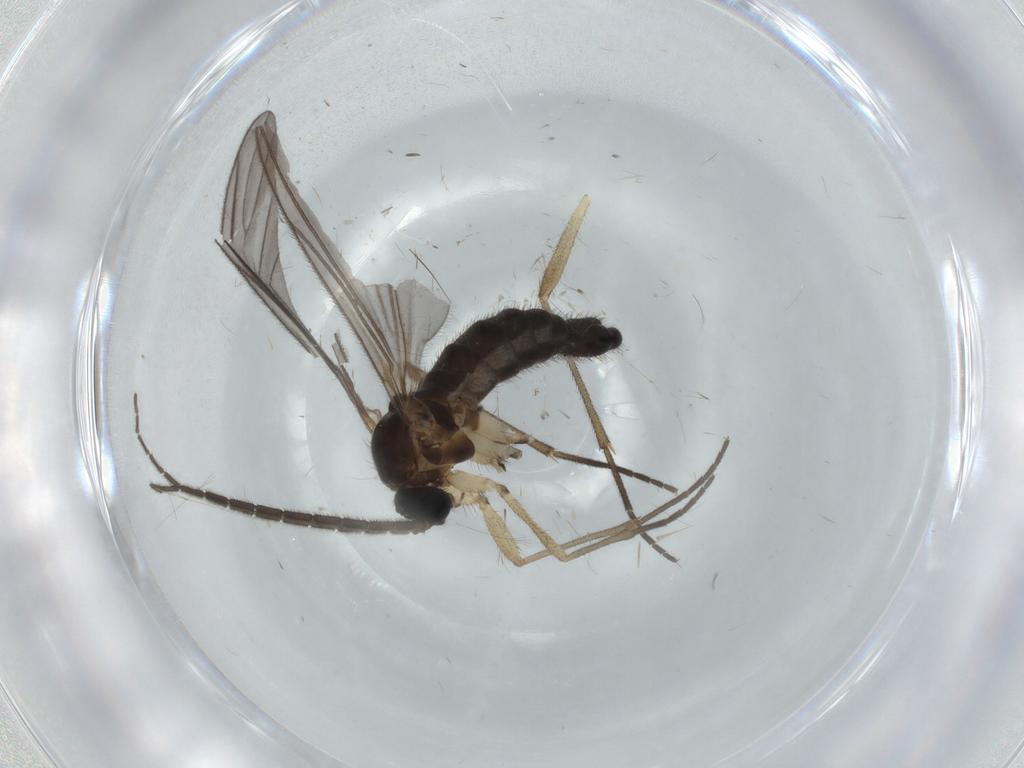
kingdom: Animalia
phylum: Arthropoda
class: Insecta
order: Diptera
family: Sciaridae
